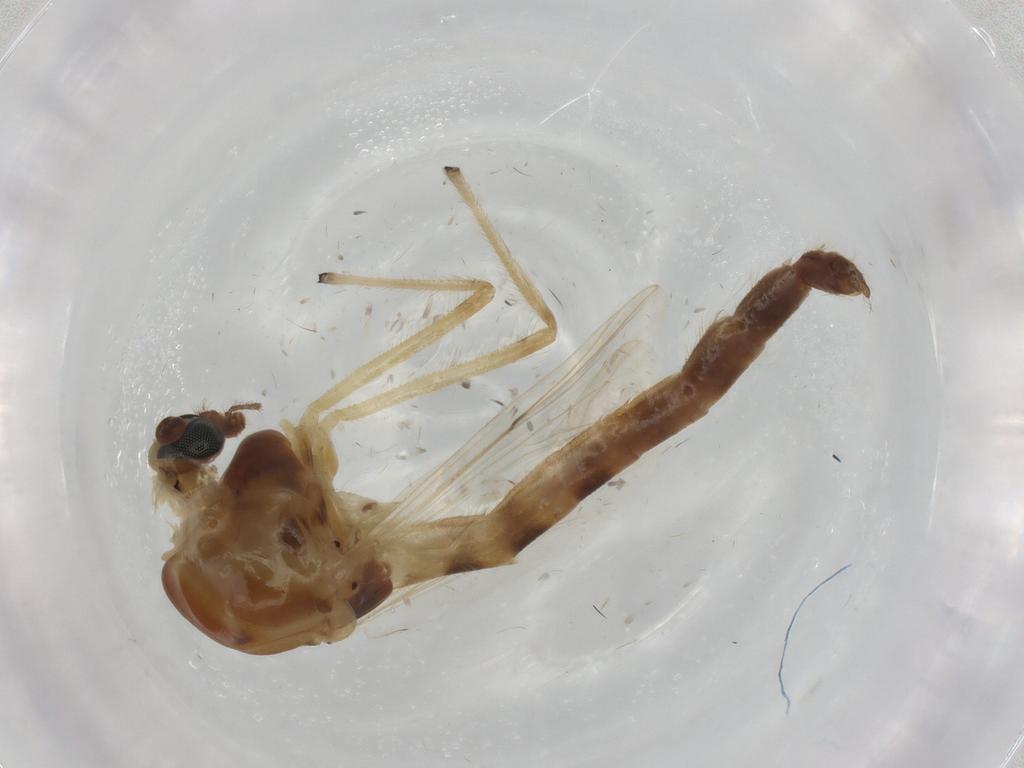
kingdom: Animalia
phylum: Arthropoda
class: Insecta
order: Diptera
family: Chironomidae
